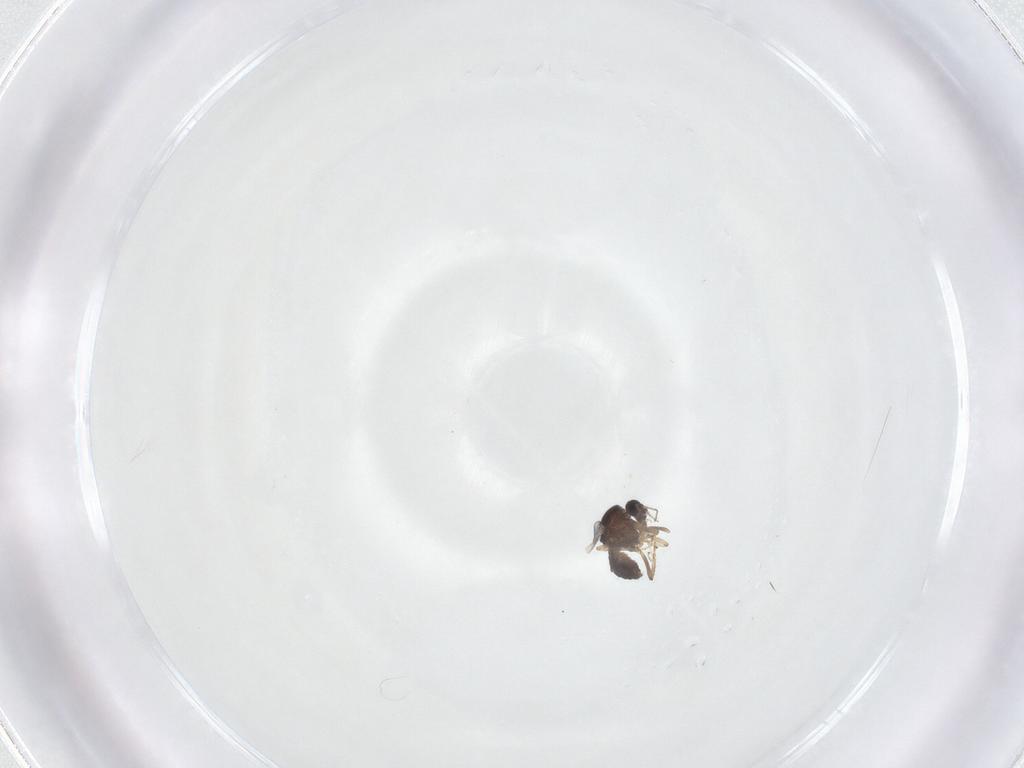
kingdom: Animalia
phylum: Arthropoda
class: Insecta
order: Diptera
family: Ceratopogonidae
